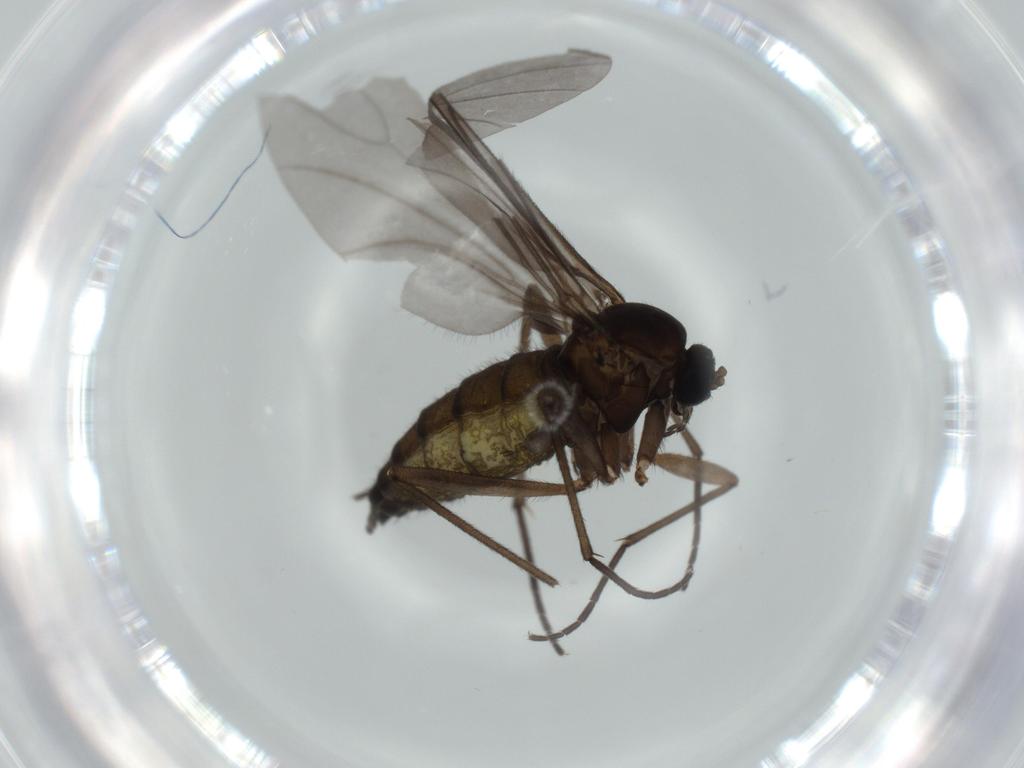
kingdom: Animalia
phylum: Arthropoda
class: Insecta
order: Diptera
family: Sciaridae
